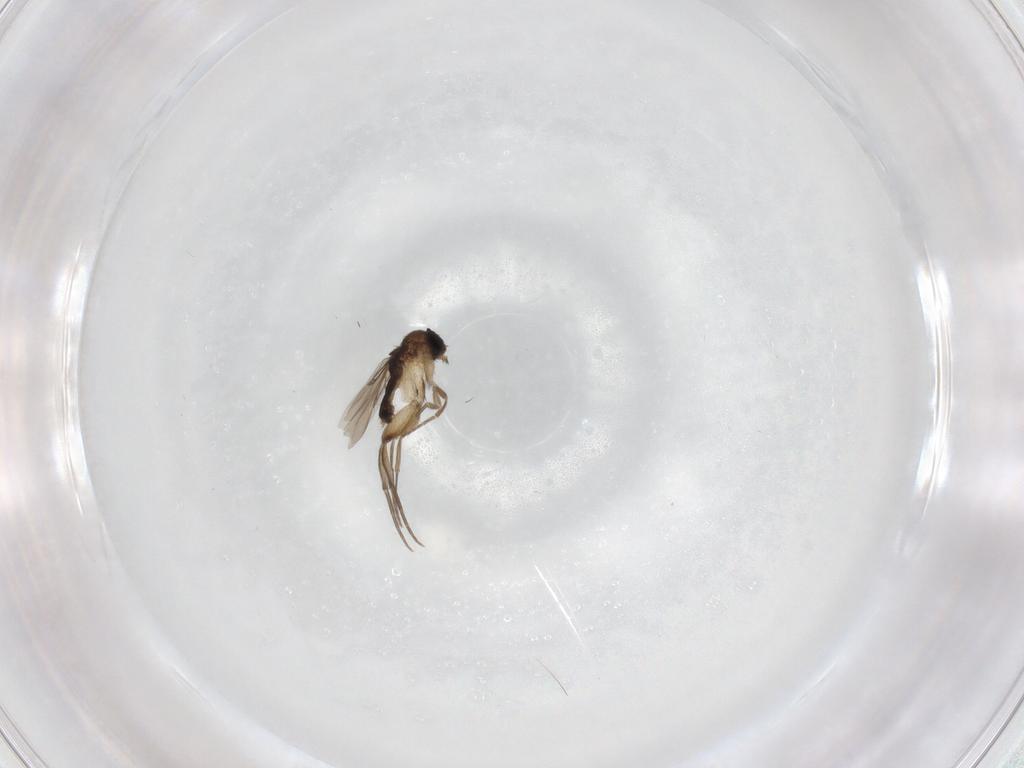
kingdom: Animalia
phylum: Arthropoda
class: Insecta
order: Diptera
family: Phoridae
